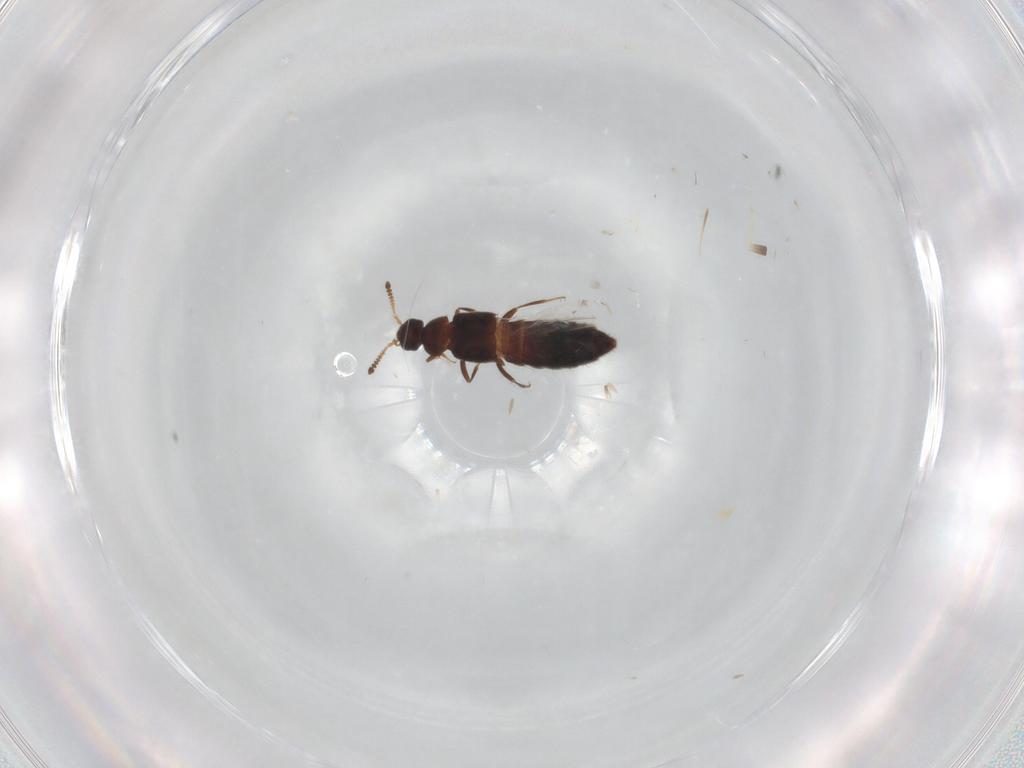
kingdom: Animalia
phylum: Arthropoda
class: Insecta
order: Coleoptera
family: Staphylinidae
